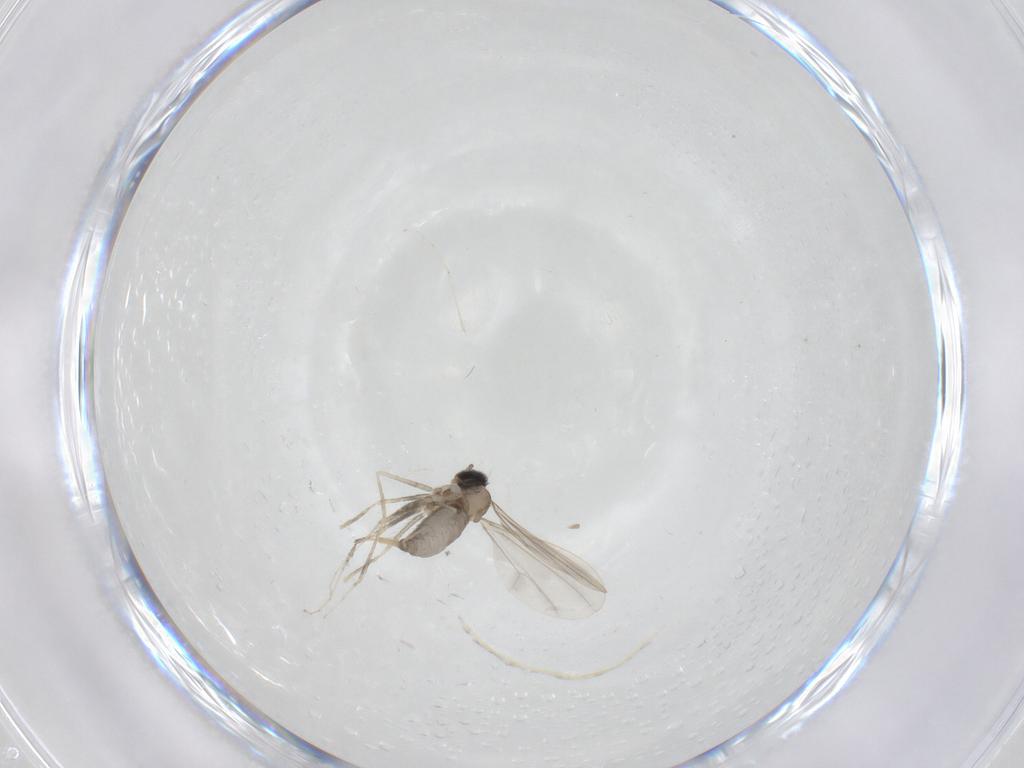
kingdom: Animalia
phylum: Arthropoda
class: Insecta
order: Diptera
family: Cecidomyiidae
